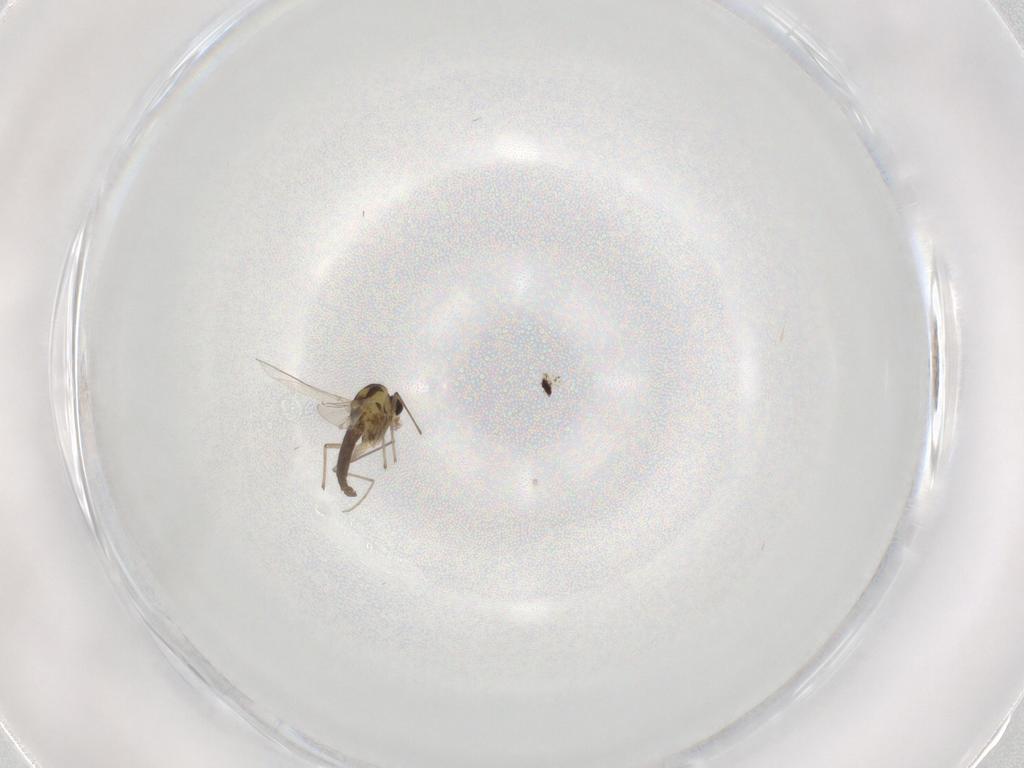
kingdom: Animalia
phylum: Arthropoda
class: Insecta
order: Diptera
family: Chironomidae
